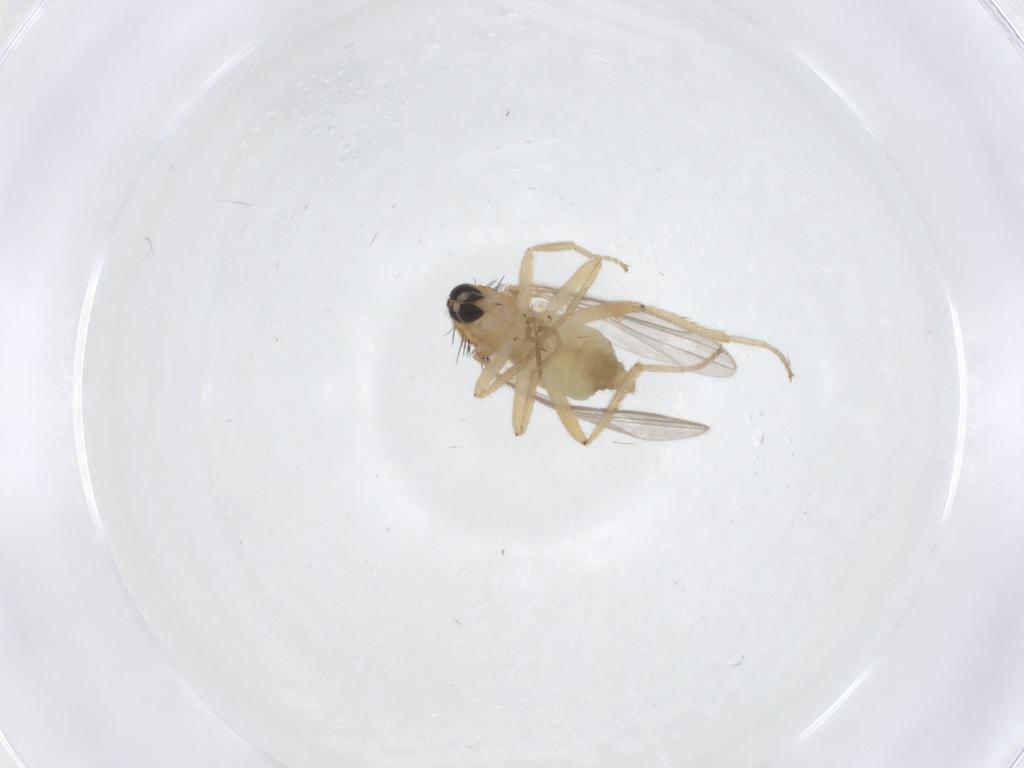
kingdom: Animalia
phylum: Arthropoda
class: Insecta
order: Diptera
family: Hybotidae
